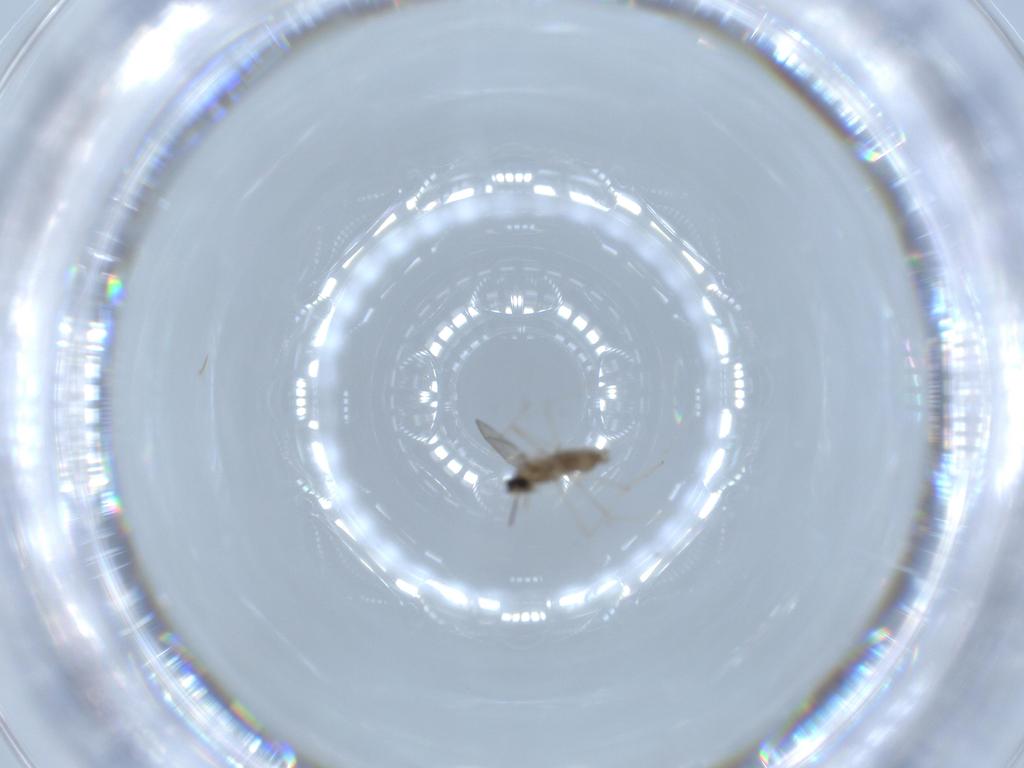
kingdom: Animalia
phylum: Arthropoda
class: Insecta
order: Diptera
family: Cecidomyiidae
